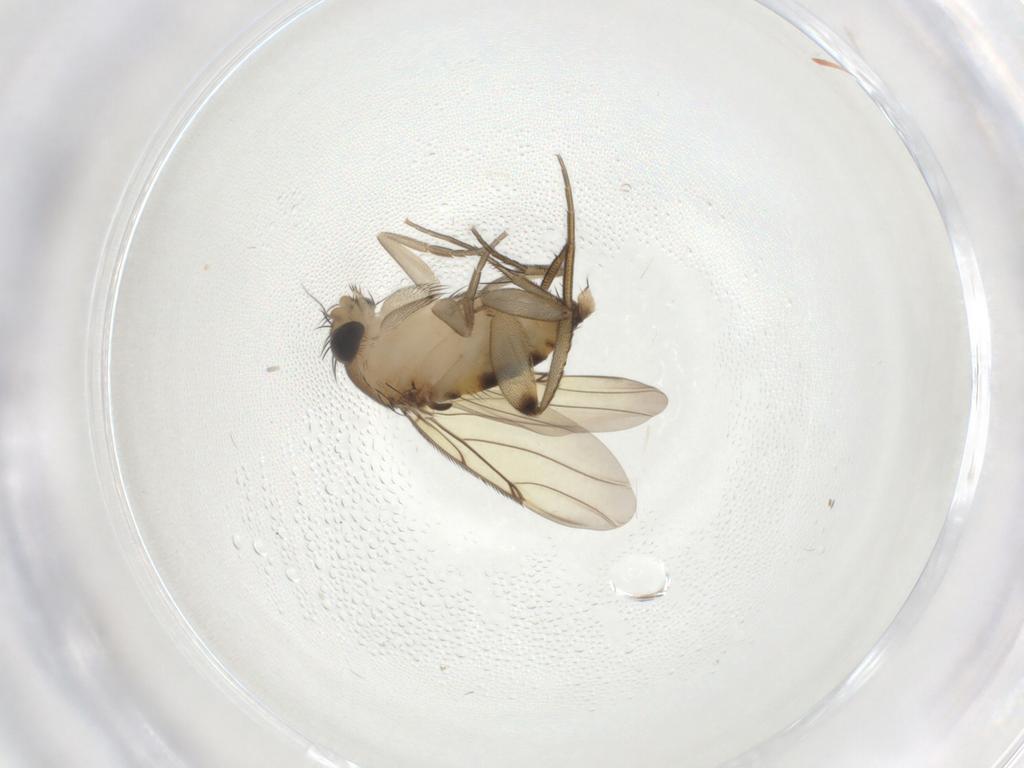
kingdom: Animalia
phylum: Arthropoda
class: Insecta
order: Diptera
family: Phoridae
